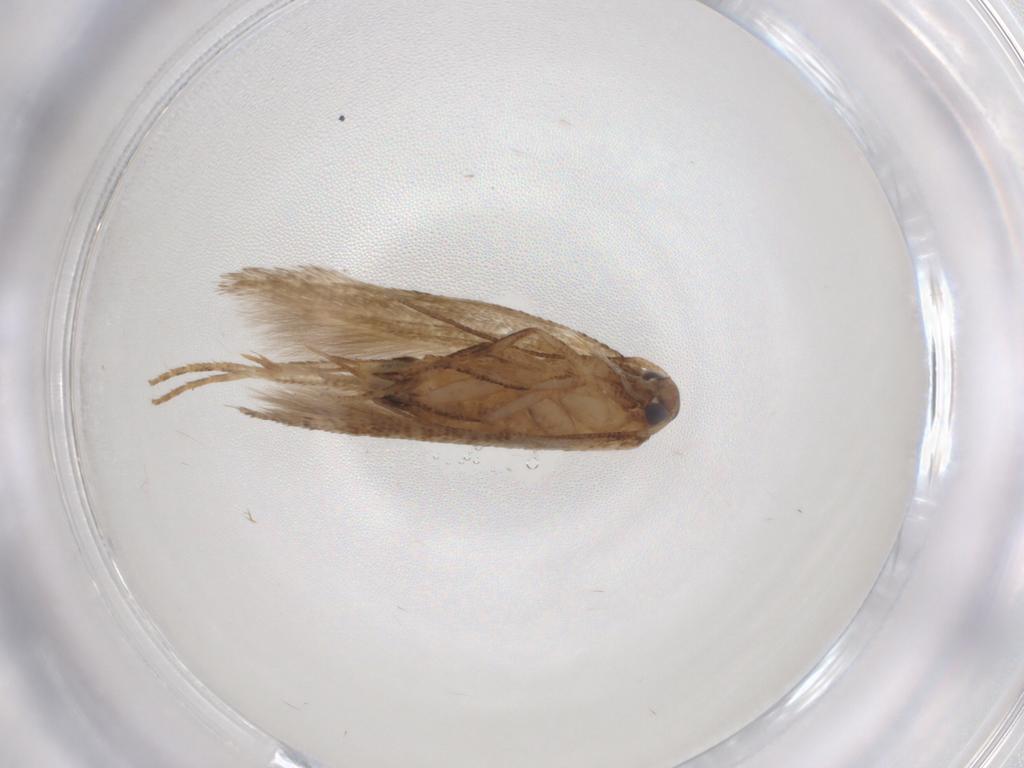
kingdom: Animalia
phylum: Arthropoda
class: Insecta
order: Lepidoptera
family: Cosmopterigidae
